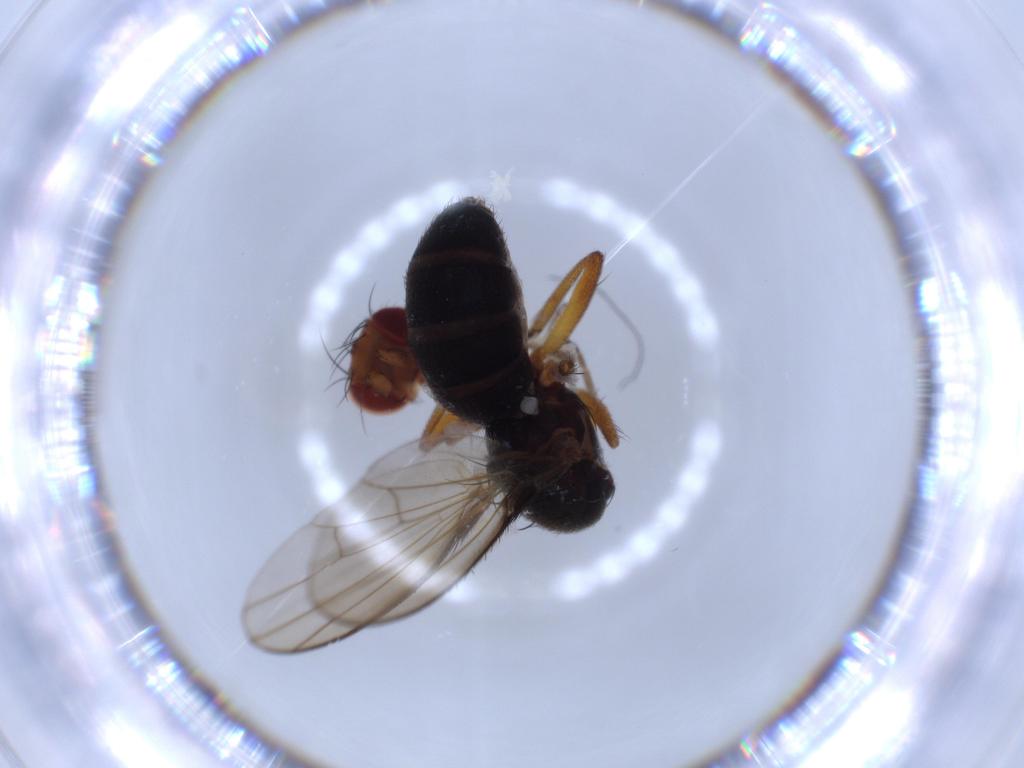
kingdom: Animalia
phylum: Arthropoda
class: Insecta
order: Diptera
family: Diastatidae
